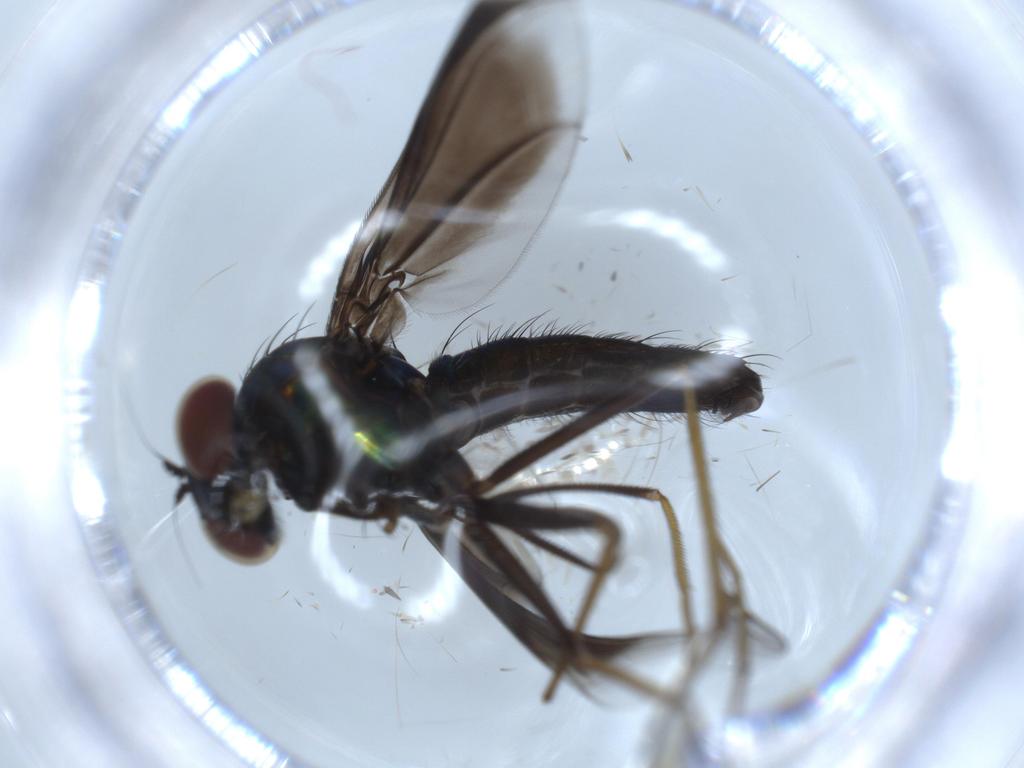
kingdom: Animalia
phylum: Arthropoda
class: Insecta
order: Diptera
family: Dolichopodidae
